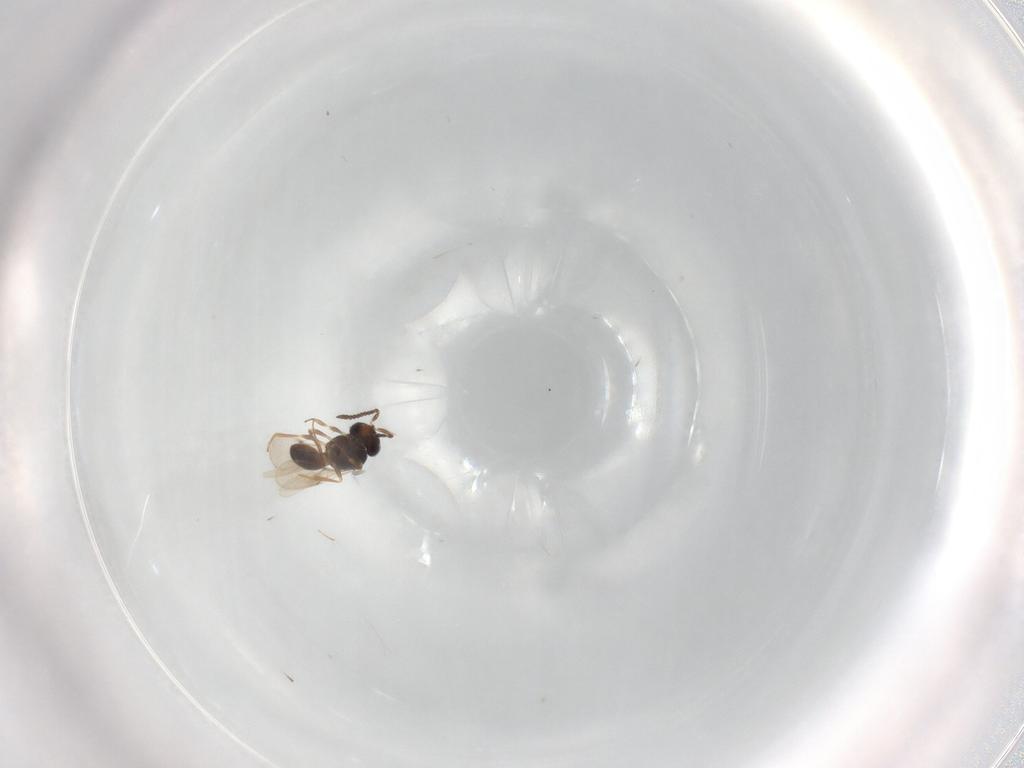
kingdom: Animalia
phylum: Arthropoda
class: Insecta
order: Hymenoptera
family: Scelionidae
